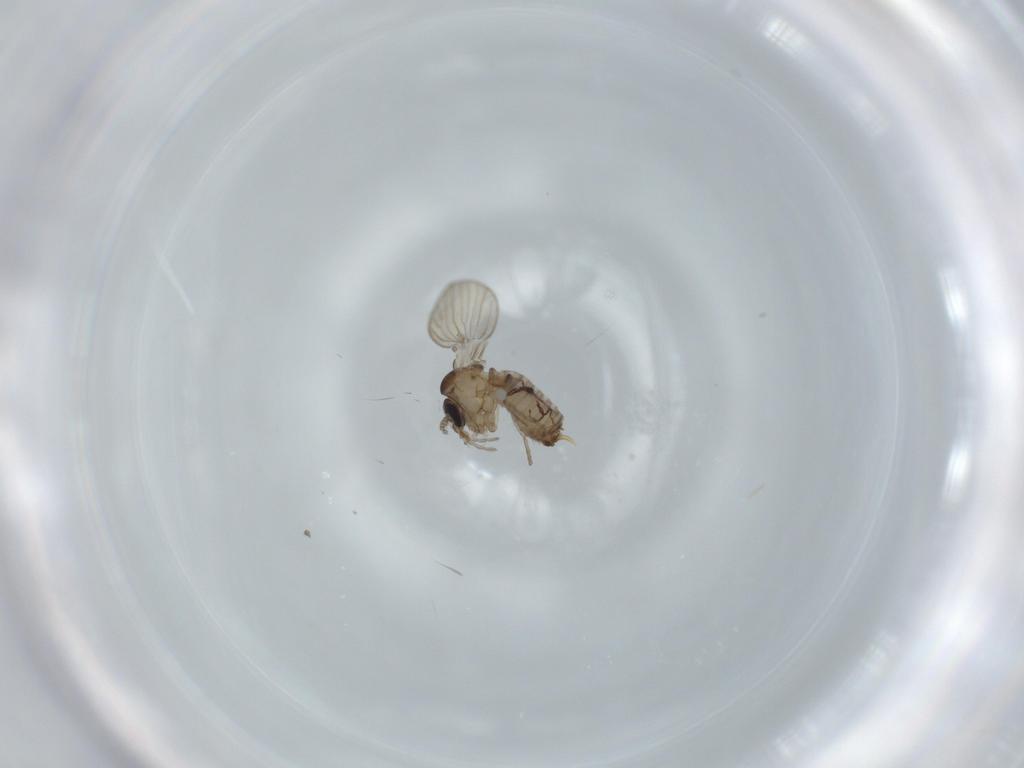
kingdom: Animalia
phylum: Arthropoda
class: Insecta
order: Diptera
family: Psychodidae
